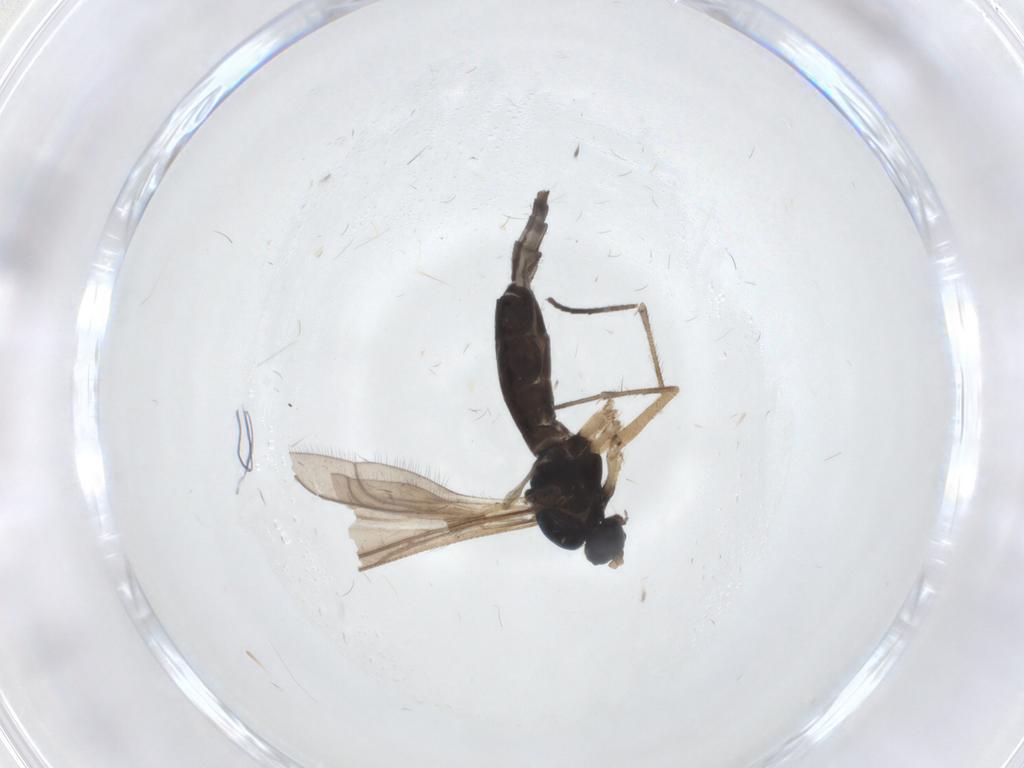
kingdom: Animalia
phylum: Arthropoda
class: Insecta
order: Diptera
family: Sciaridae
